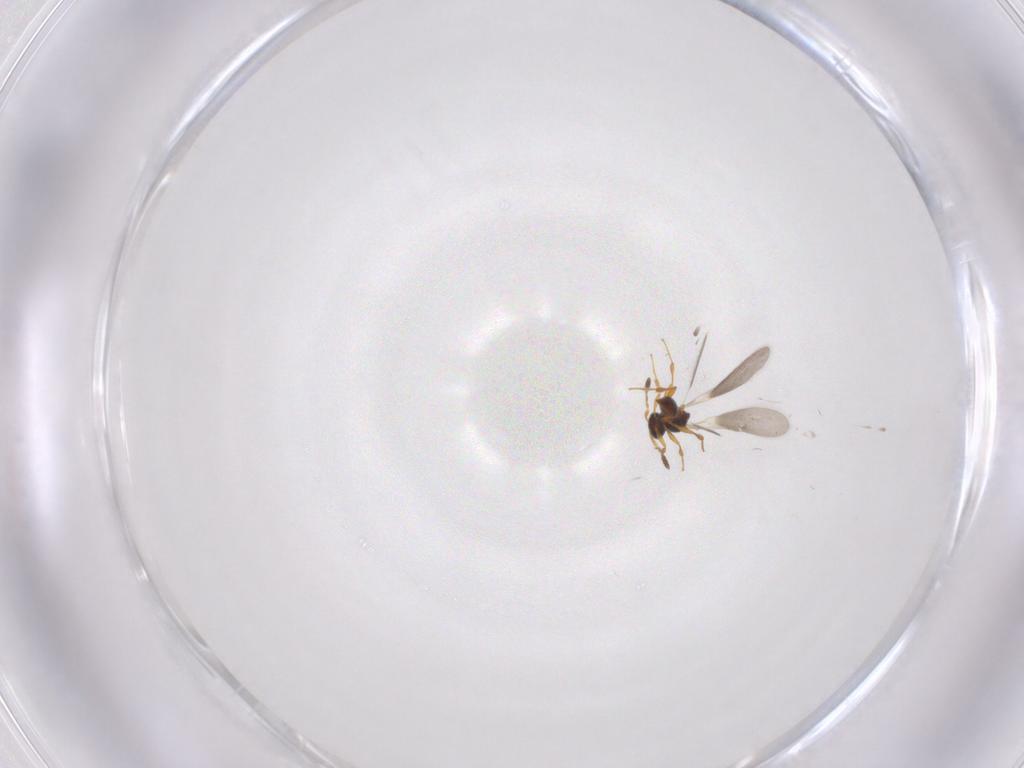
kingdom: Animalia
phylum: Arthropoda
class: Insecta
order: Hymenoptera
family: Platygastridae
